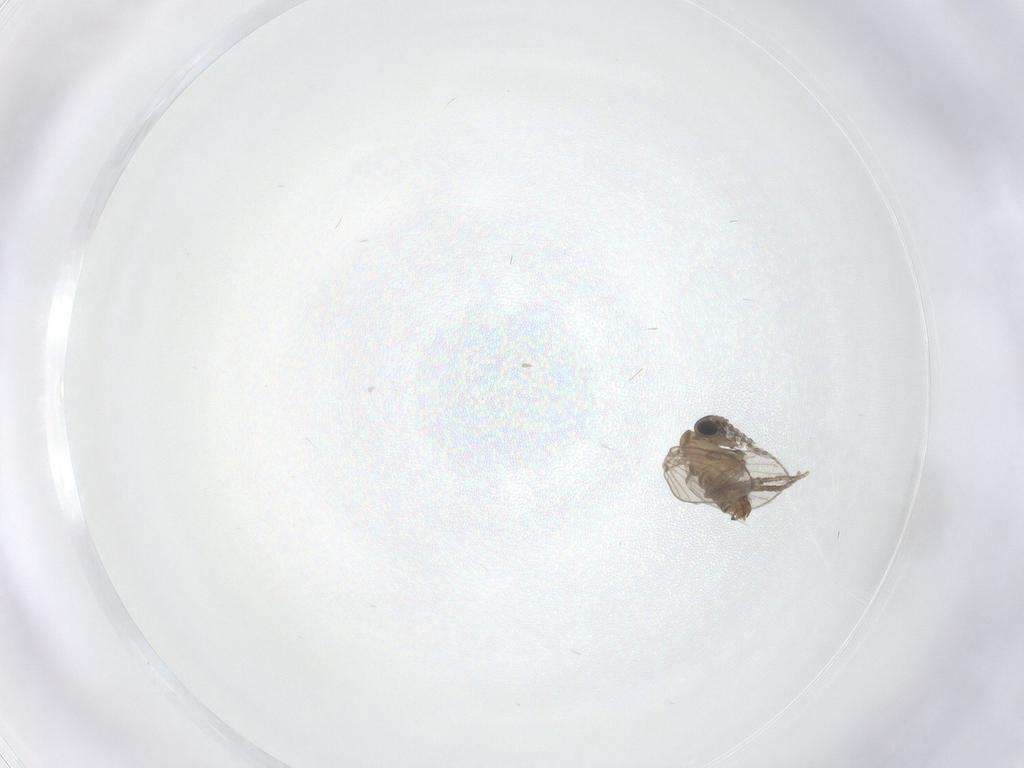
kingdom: Animalia
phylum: Arthropoda
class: Insecta
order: Diptera
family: Psychodidae
